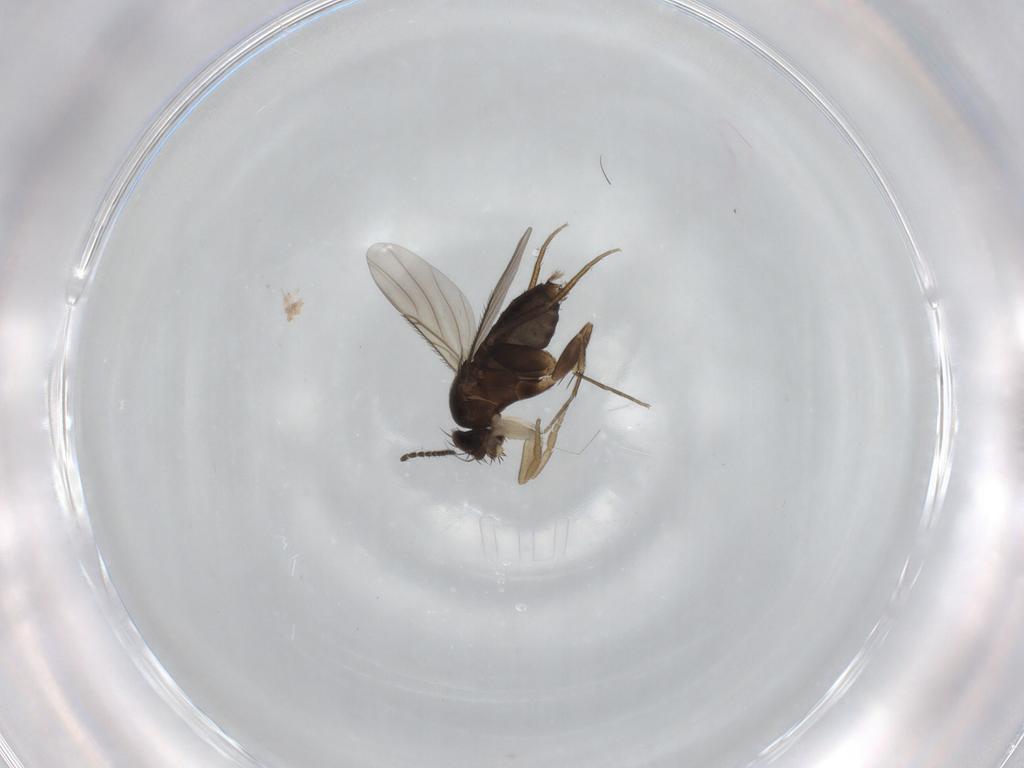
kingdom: Animalia
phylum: Arthropoda
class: Insecta
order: Diptera
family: Phoridae
